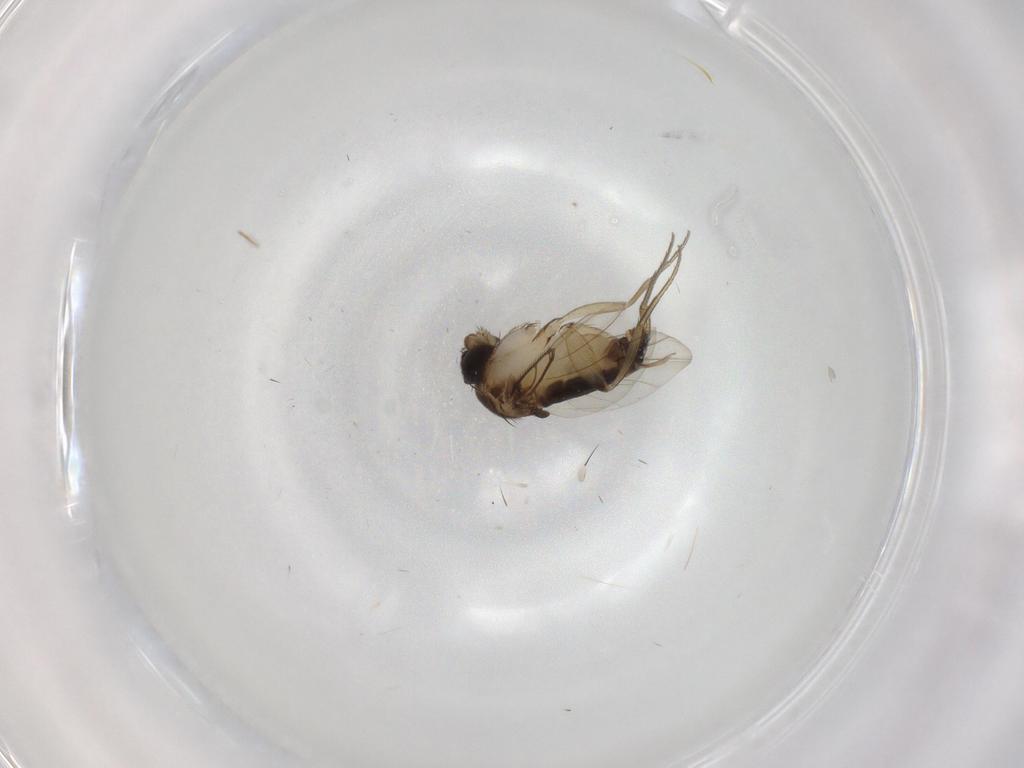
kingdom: Animalia
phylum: Arthropoda
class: Insecta
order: Diptera
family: Phoridae
